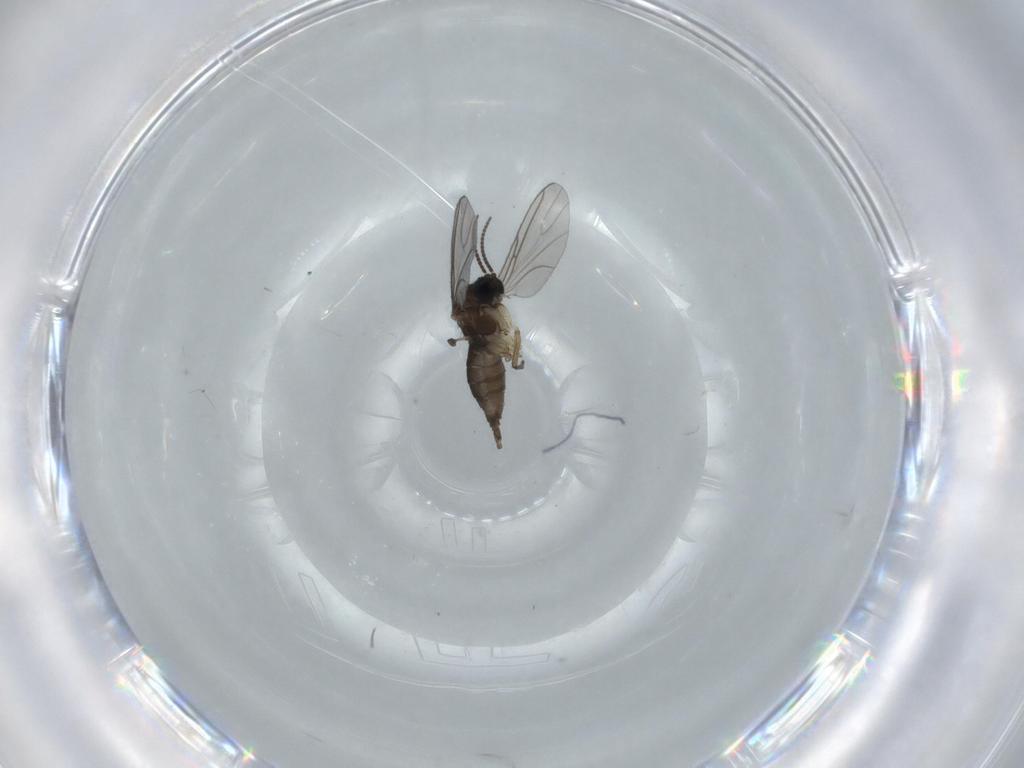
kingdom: Animalia
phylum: Arthropoda
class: Insecta
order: Diptera
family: Sciaridae
